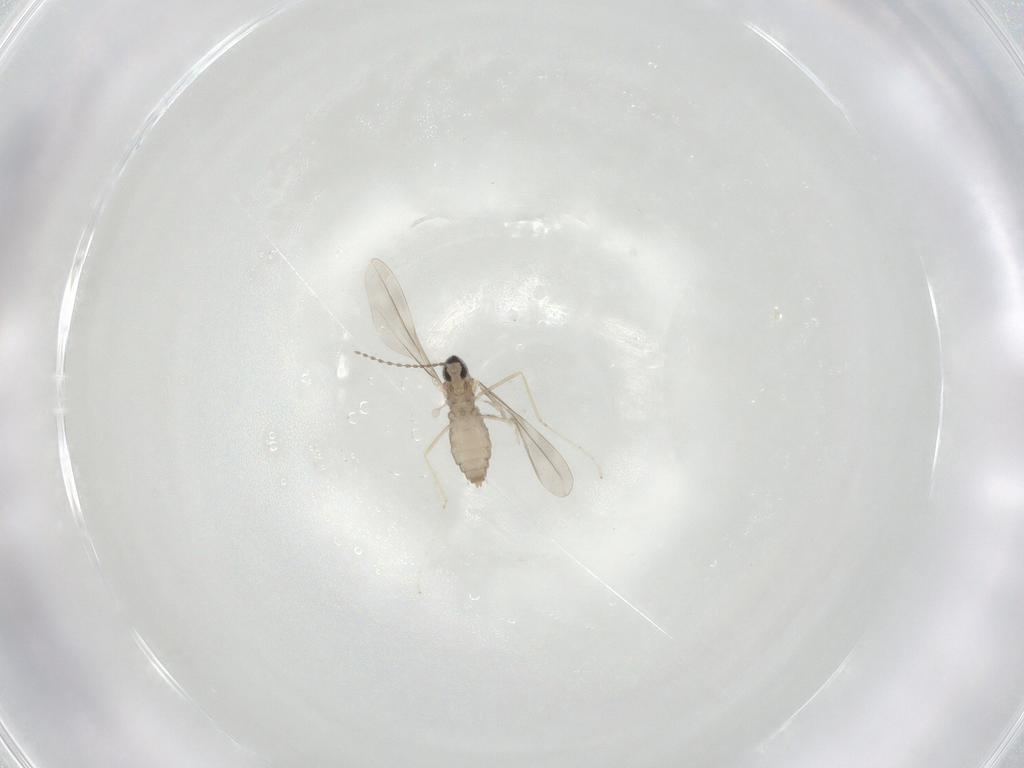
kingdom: Animalia
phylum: Arthropoda
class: Insecta
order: Diptera
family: Cecidomyiidae
